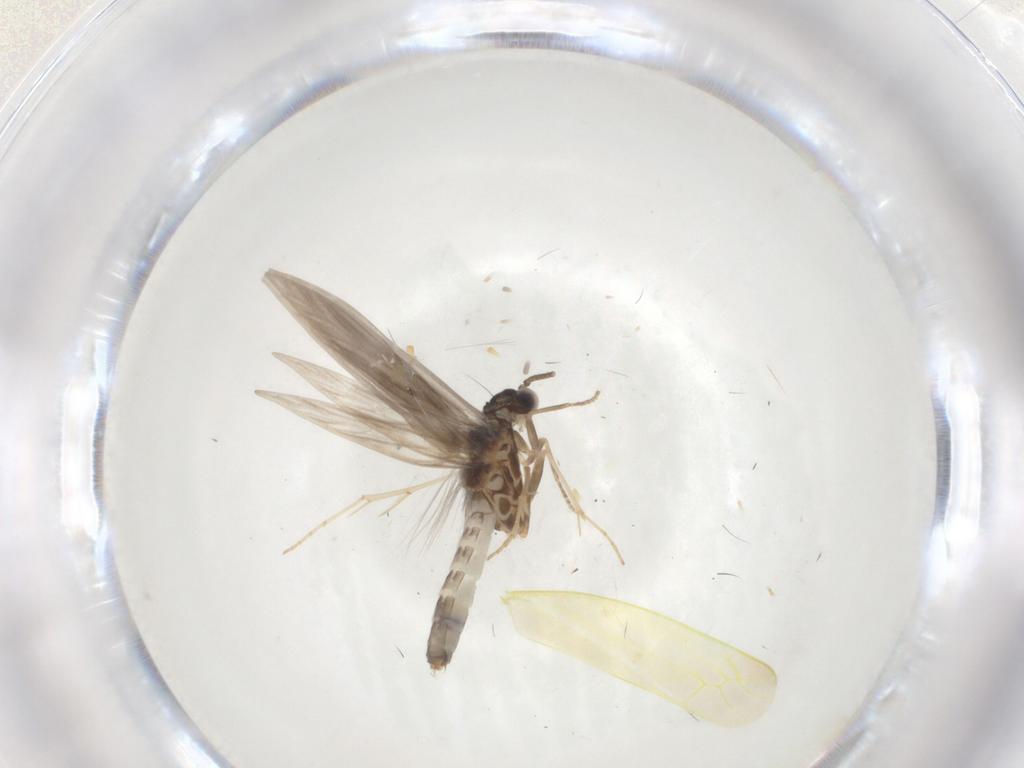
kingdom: Animalia
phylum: Arthropoda
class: Insecta
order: Trichoptera
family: Hydroptilidae
